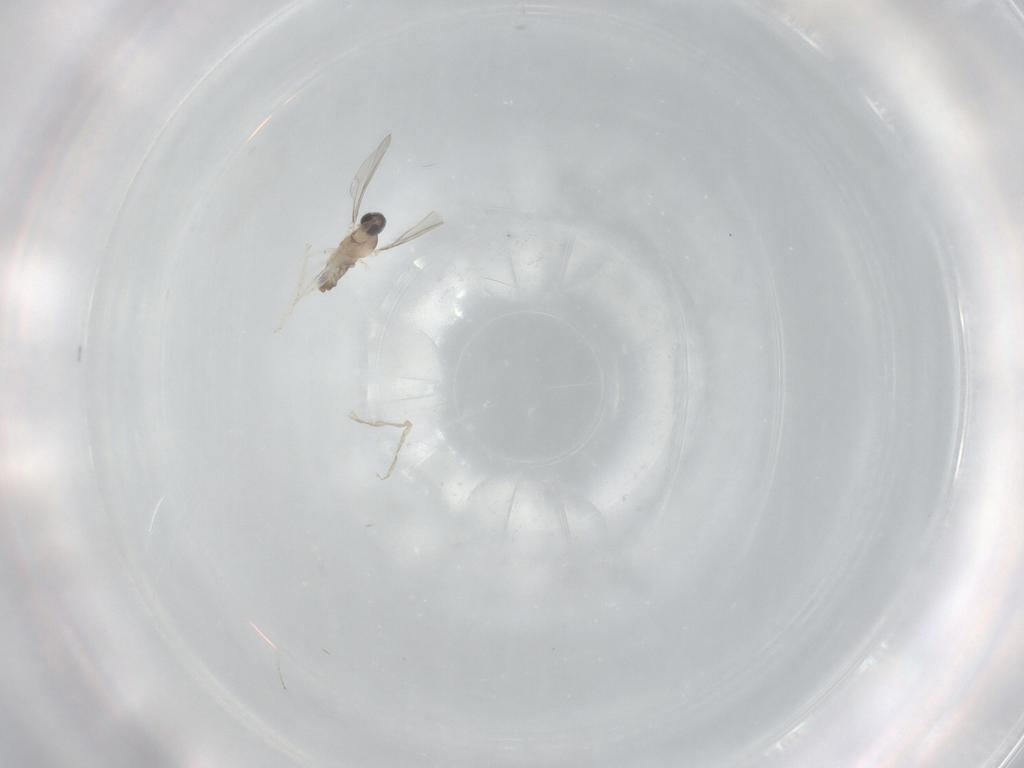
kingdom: Animalia
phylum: Arthropoda
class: Insecta
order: Diptera
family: Cecidomyiidae
